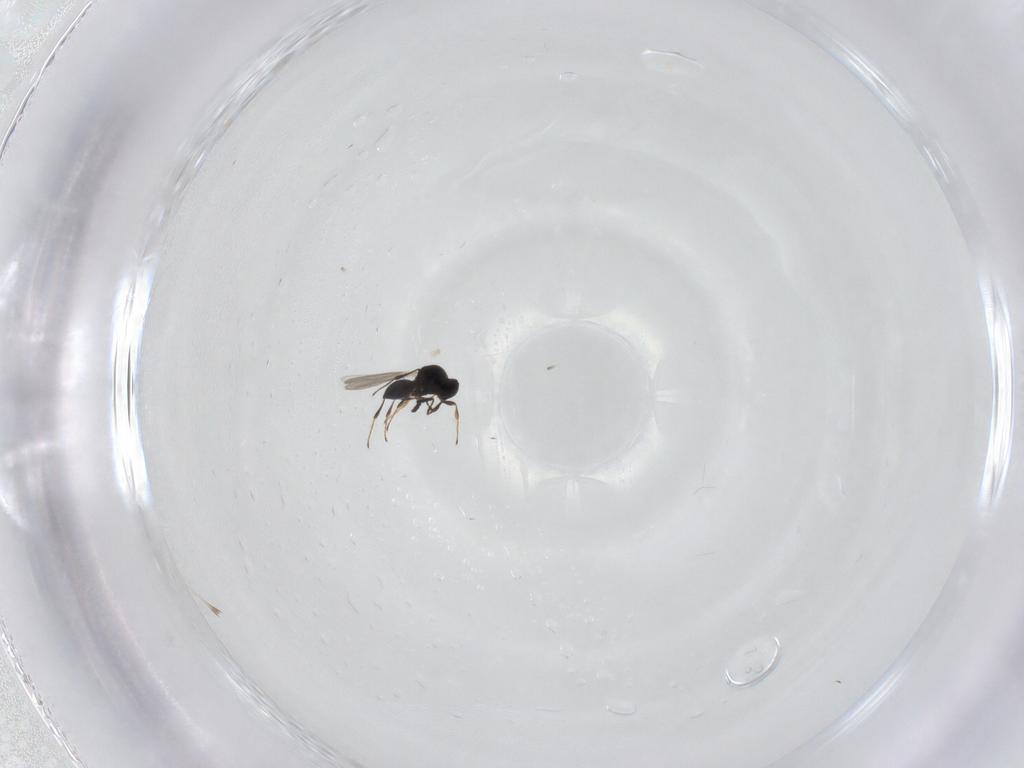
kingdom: Animalia
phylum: Arthropoda
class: Insecta
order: Hymenoptera
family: Platygastridae
